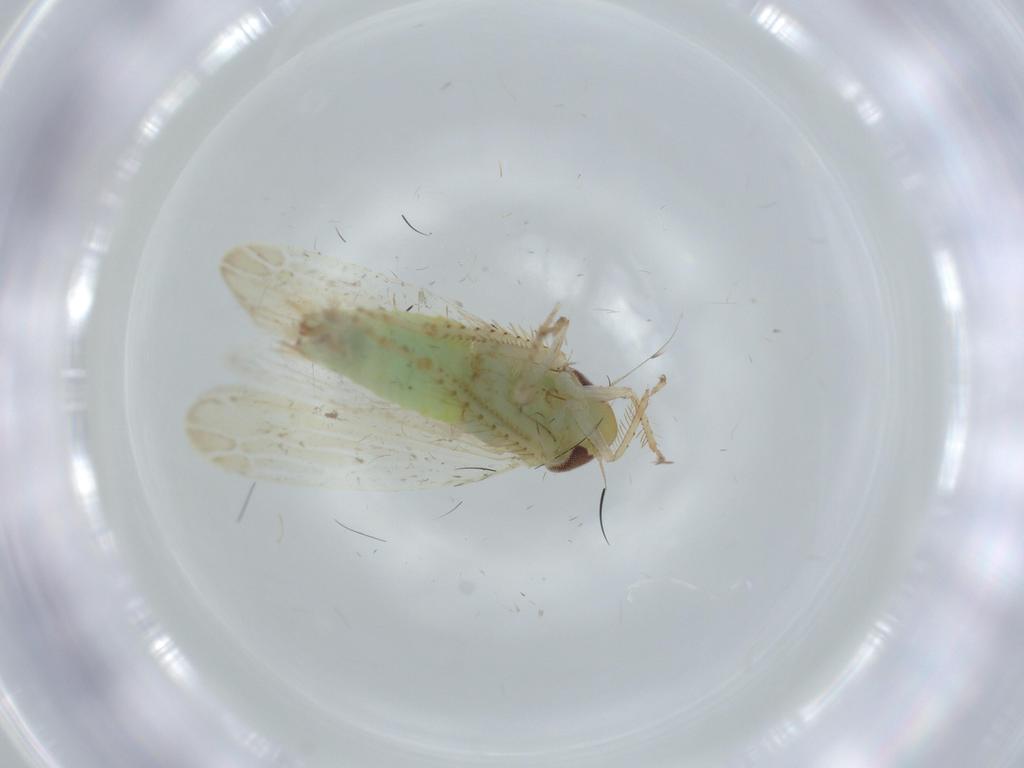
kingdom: Animalia
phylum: Arthropoda
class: Insecta
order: Hemiptera
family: Cicadellidae
